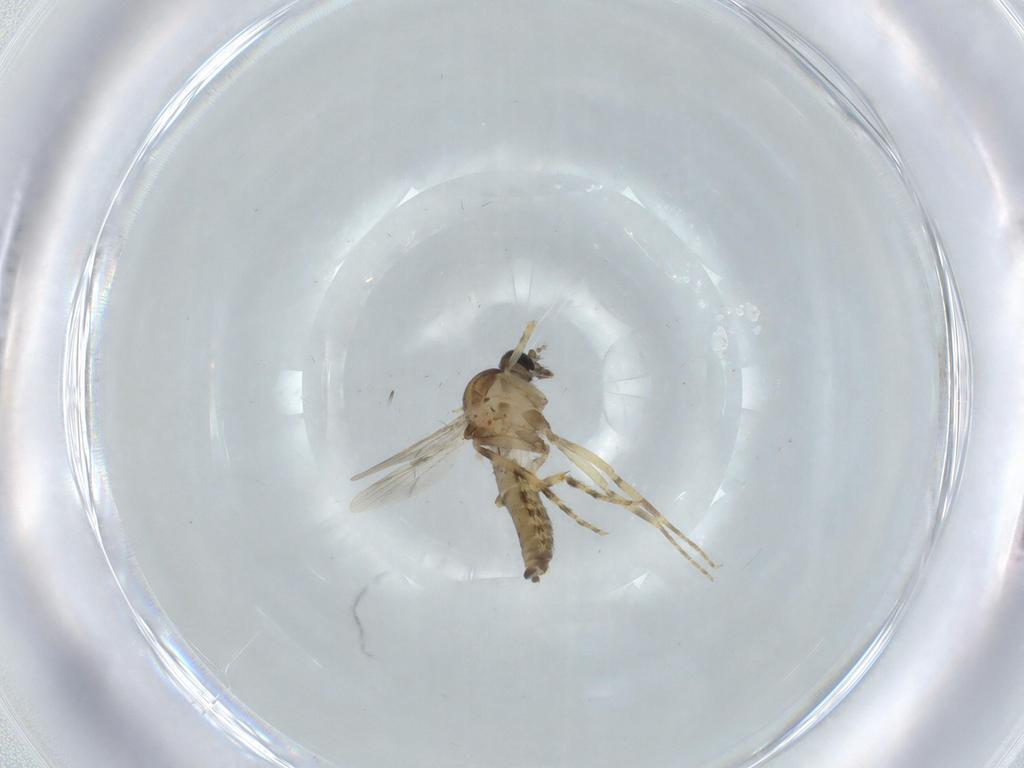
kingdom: Animalia
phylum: Arthropoda
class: Insecta
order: Diptera
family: Ceratopogonidae
